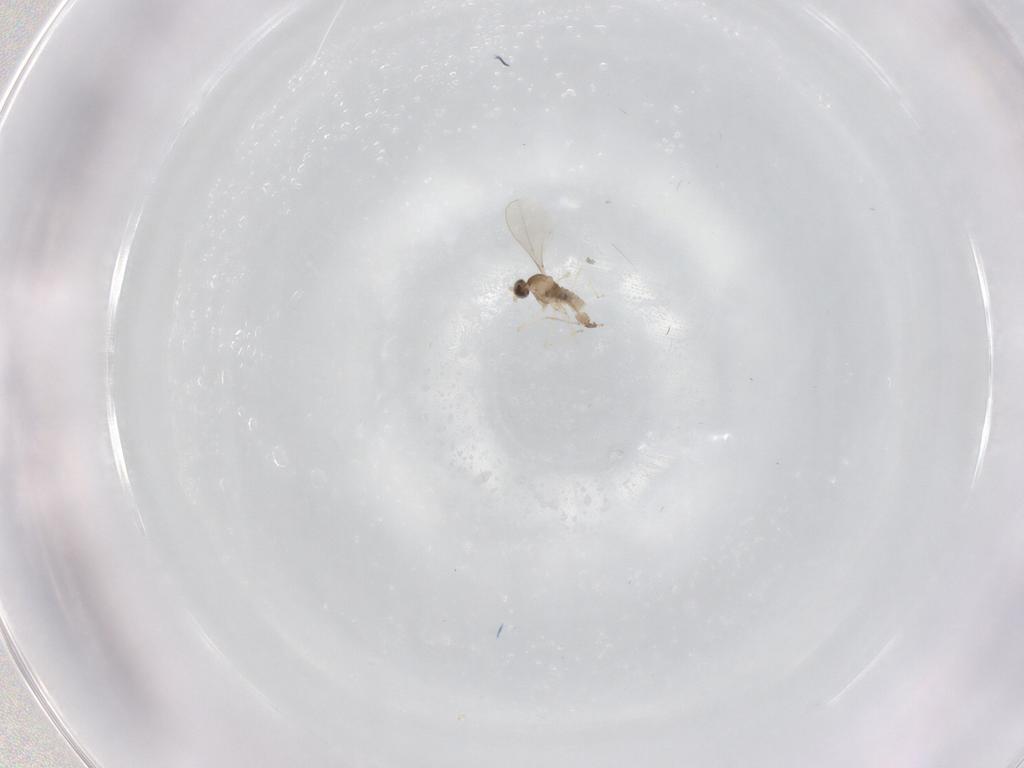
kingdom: Animalia
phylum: Arthropoda
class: Insecta
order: Diptera
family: Cecidomyiidae
